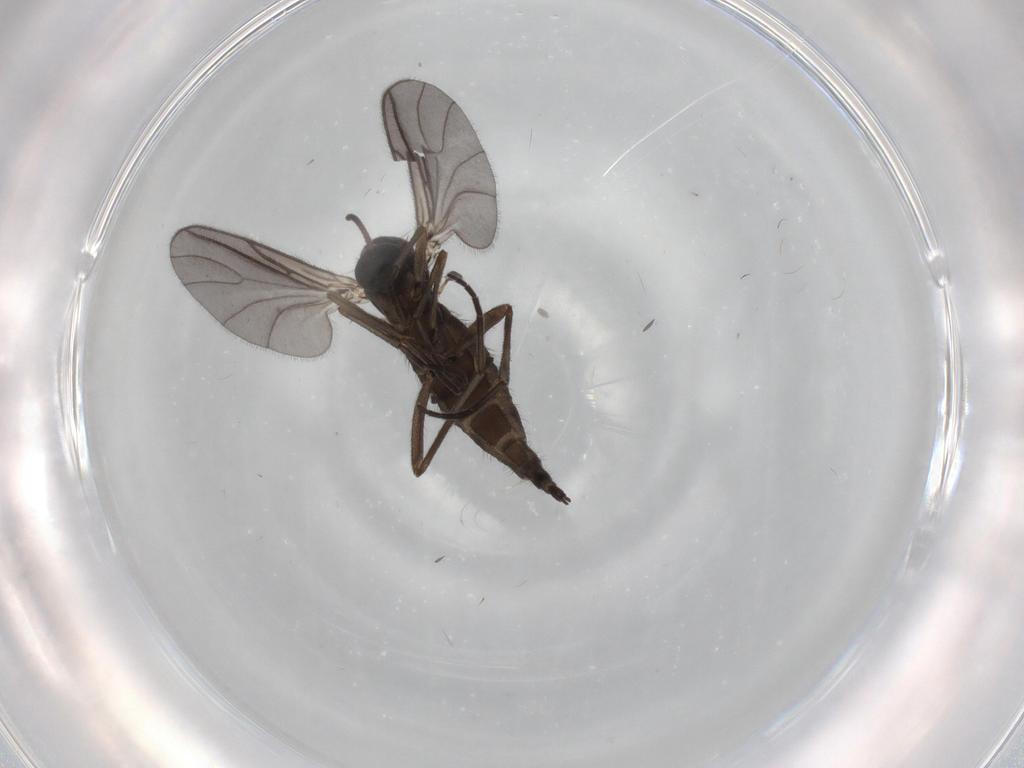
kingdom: Animalia
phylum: Arthropoda
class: Insecta
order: Diptera
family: Sciaridae
